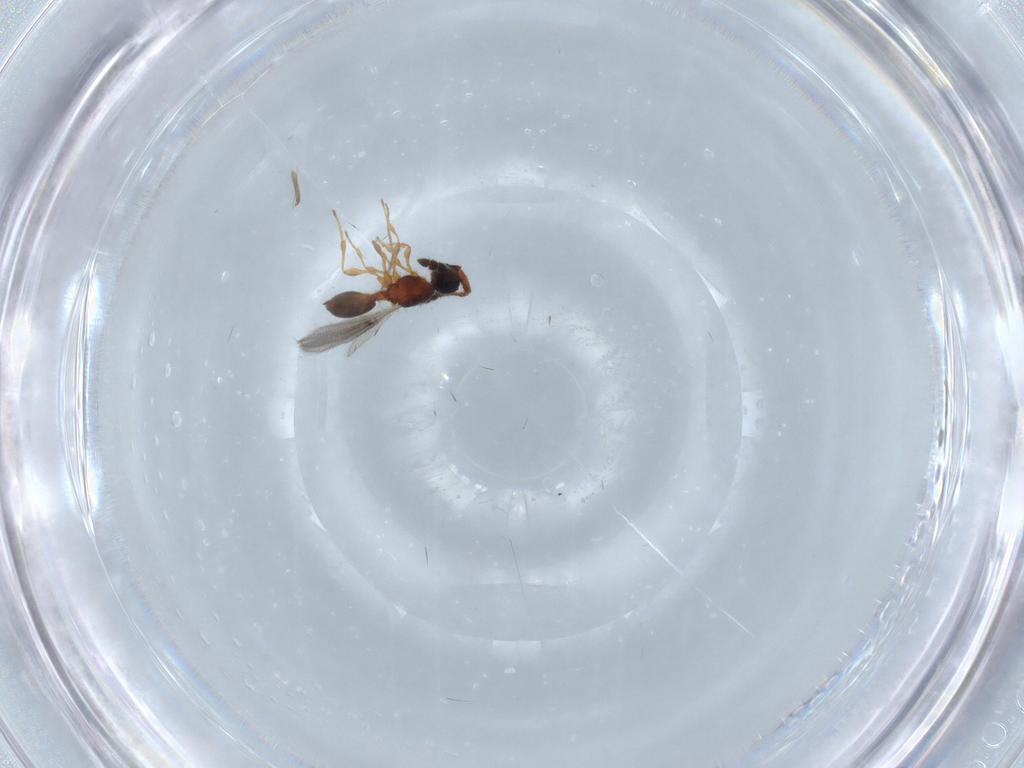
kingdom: Animalia
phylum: Arthropoda
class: Insecta
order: Hymenoptera
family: Diapriidae
